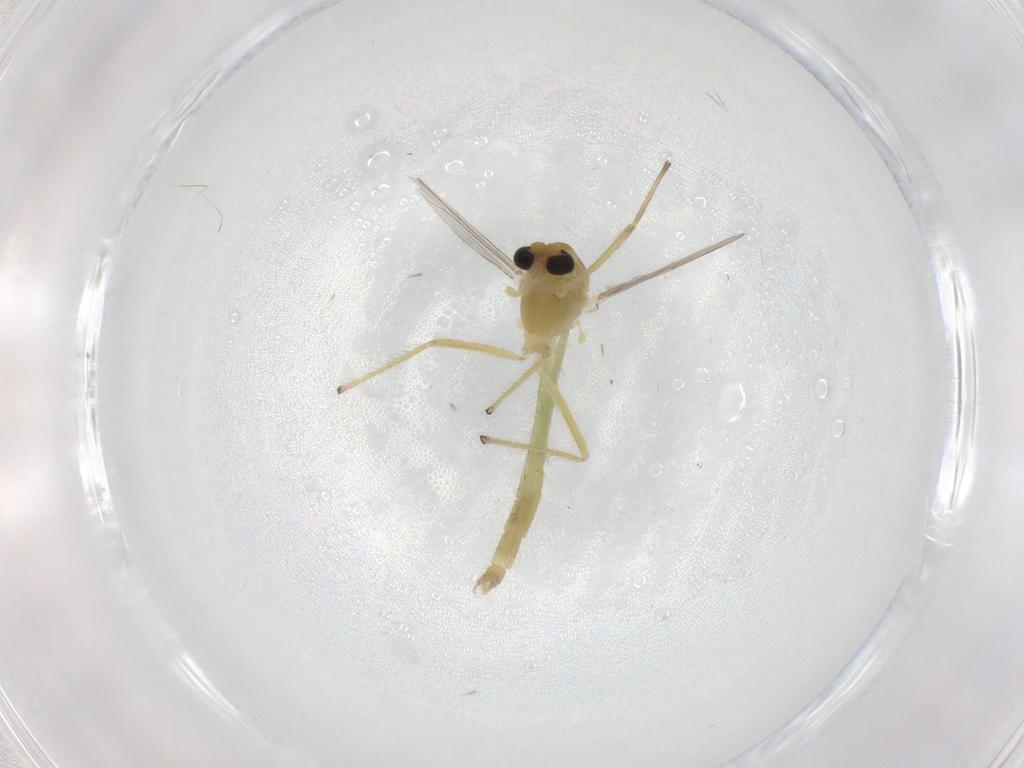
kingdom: Animalia
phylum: Arthropoda
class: Insecta
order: Diptera
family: Chironomidae
